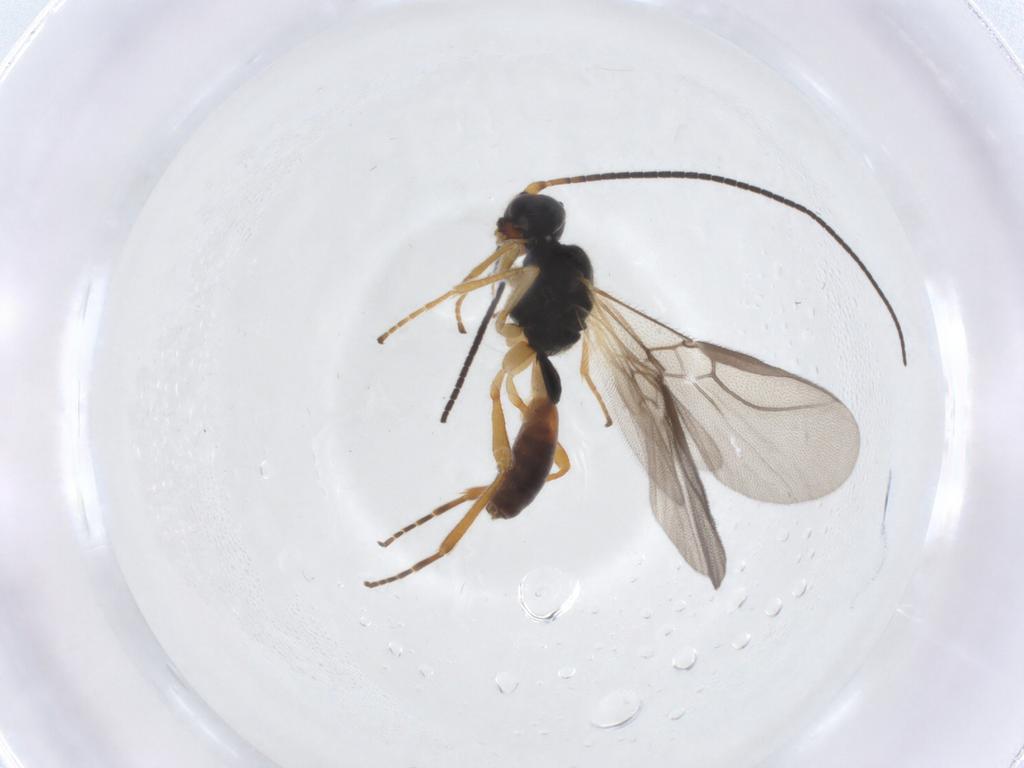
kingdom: Animalia
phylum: Arthropoda
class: Insecta
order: Hymenoptera
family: Braconidae
